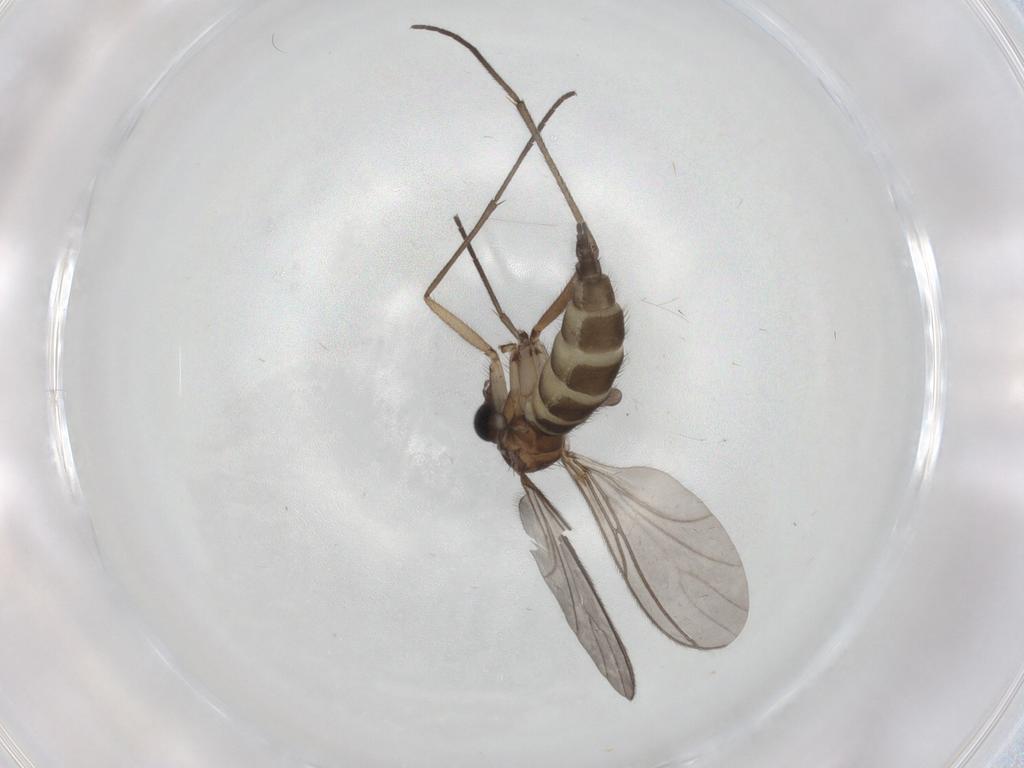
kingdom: Animalia
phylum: Arthropoda
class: Insecta
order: Diptera
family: Sciaridae
